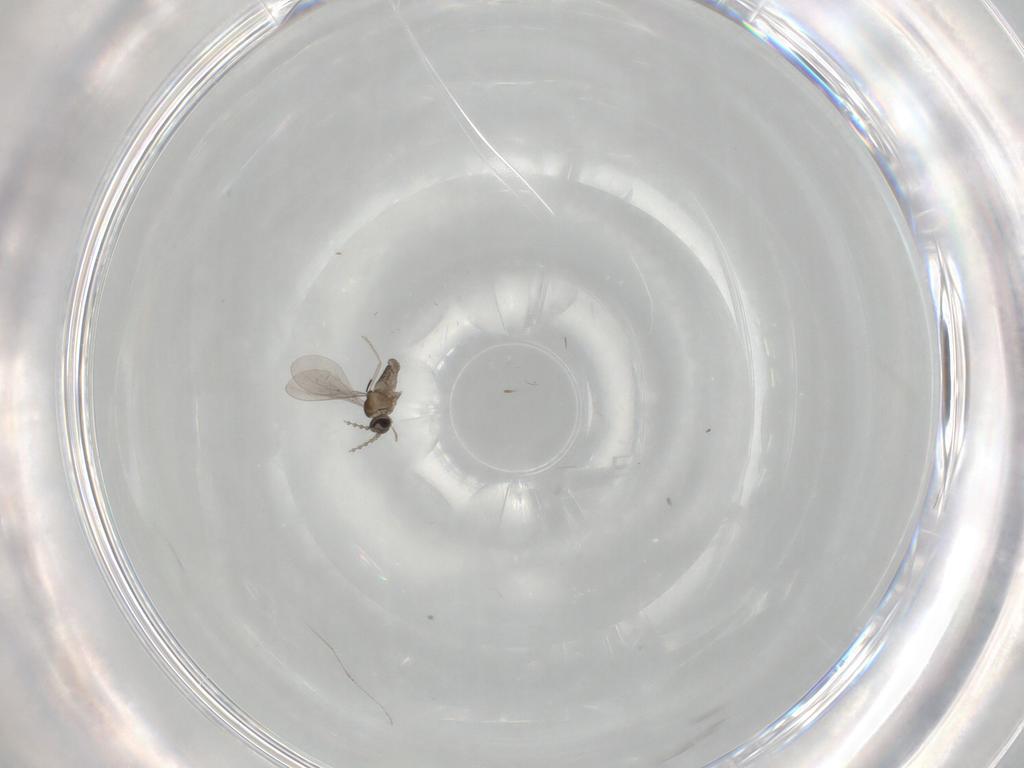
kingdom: Animalia
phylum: Arthropoda
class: Insecta
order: Diptera
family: Cecidomyiidae
